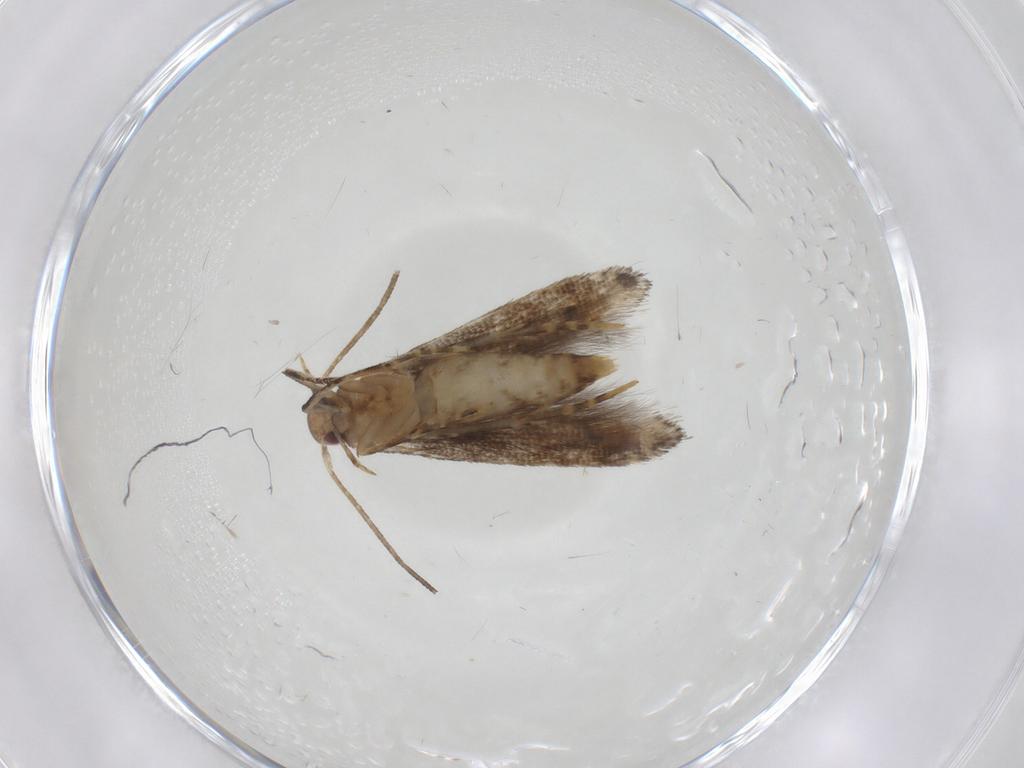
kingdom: Animalia
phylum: Arthropoda
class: Insecta
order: Lepidoptera
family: Momphidae
